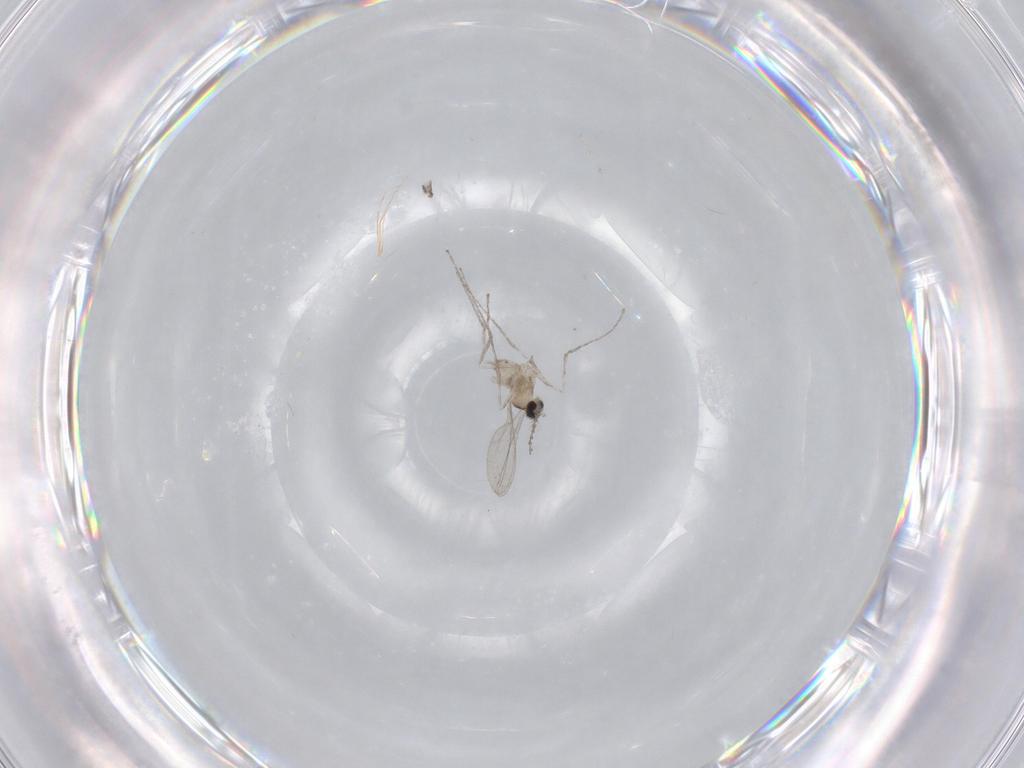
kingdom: Animalia
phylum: Arthropoda
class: Insecta
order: Diptera
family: Cecidomyiidae
